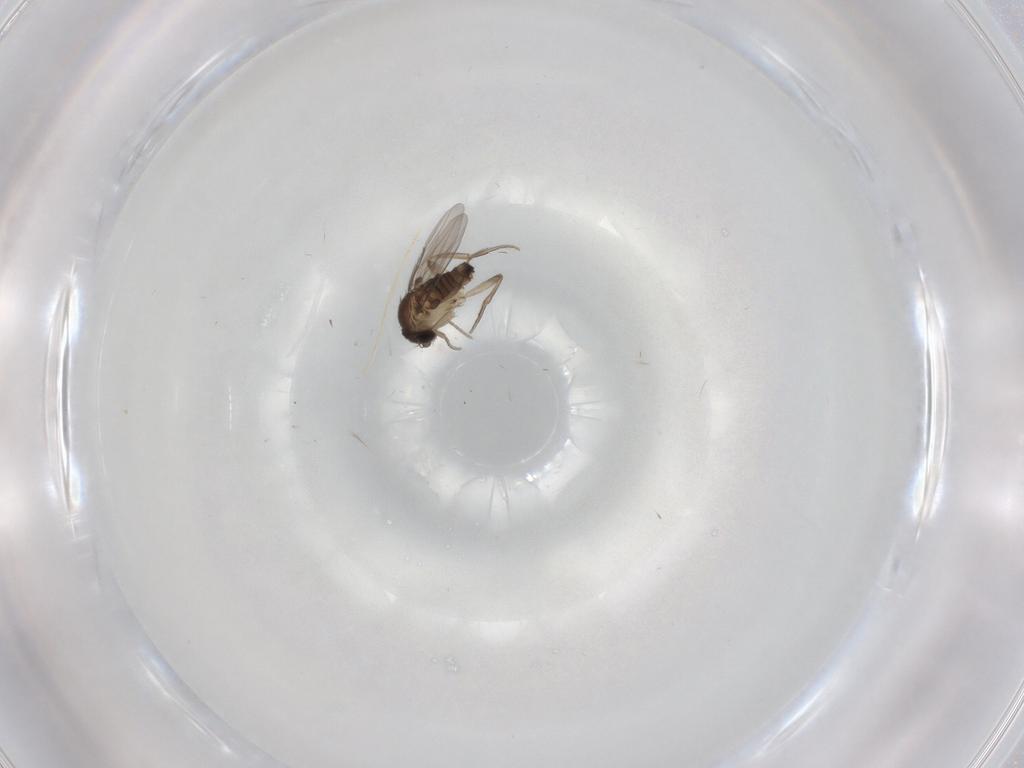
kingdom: Animalia
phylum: Arthropoda
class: Insecta
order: Diptera
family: Phoridae
